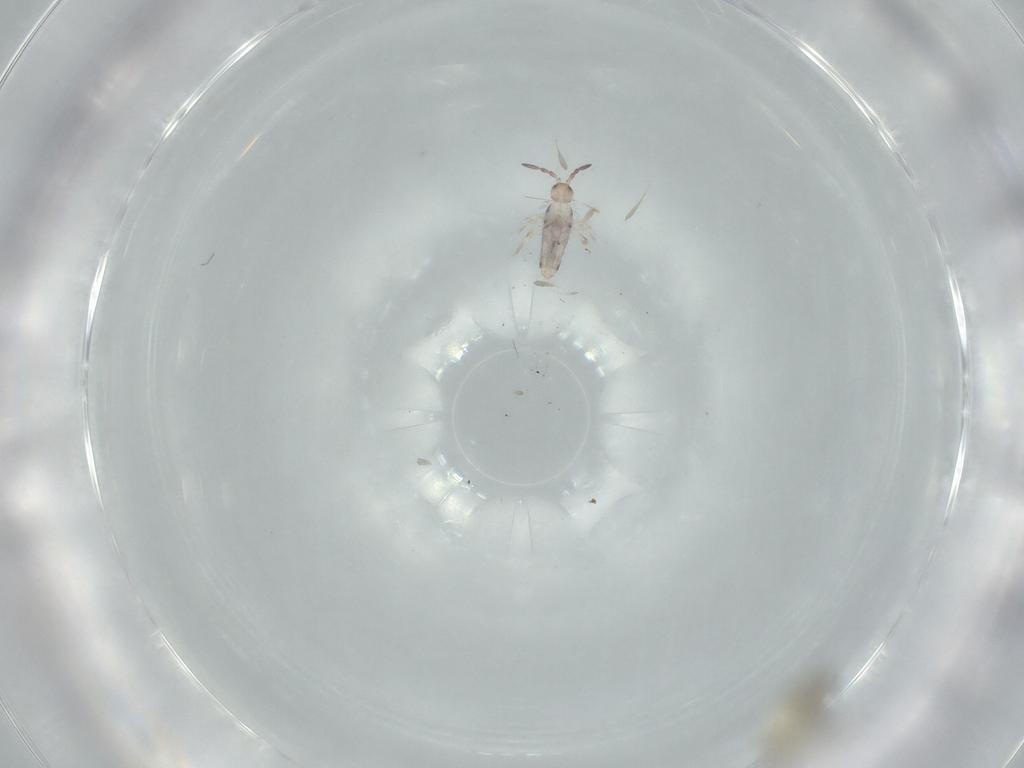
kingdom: Animalia
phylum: Arthropoda
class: Insecta
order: Diptera
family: Cecidomyiidae
